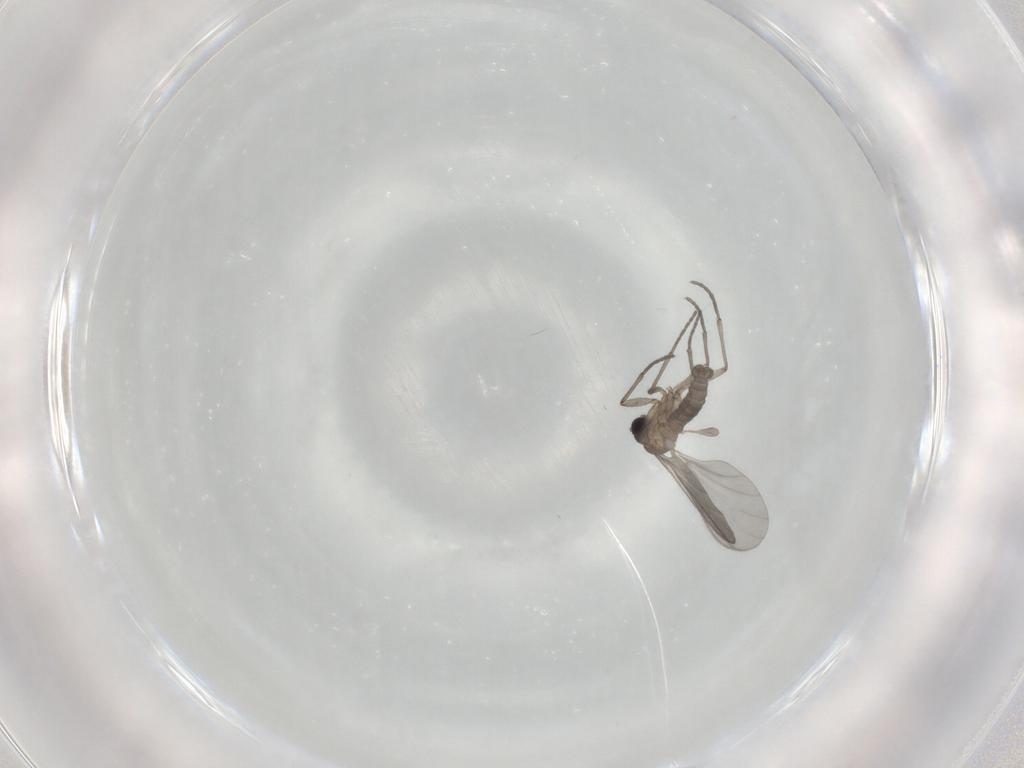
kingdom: Animalia
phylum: Arthropoda
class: Insecta
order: Diptera
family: Sciaridae
